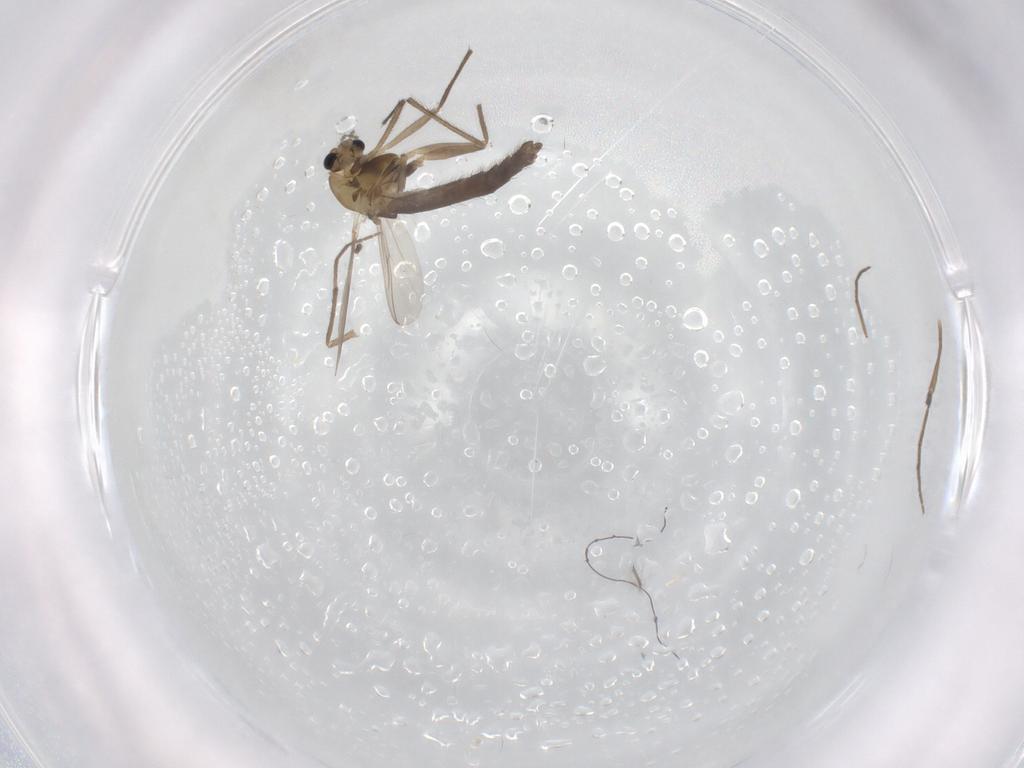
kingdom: Animalia
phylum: Arthropoda
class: Insecta
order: Diptera
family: Chironomidae
